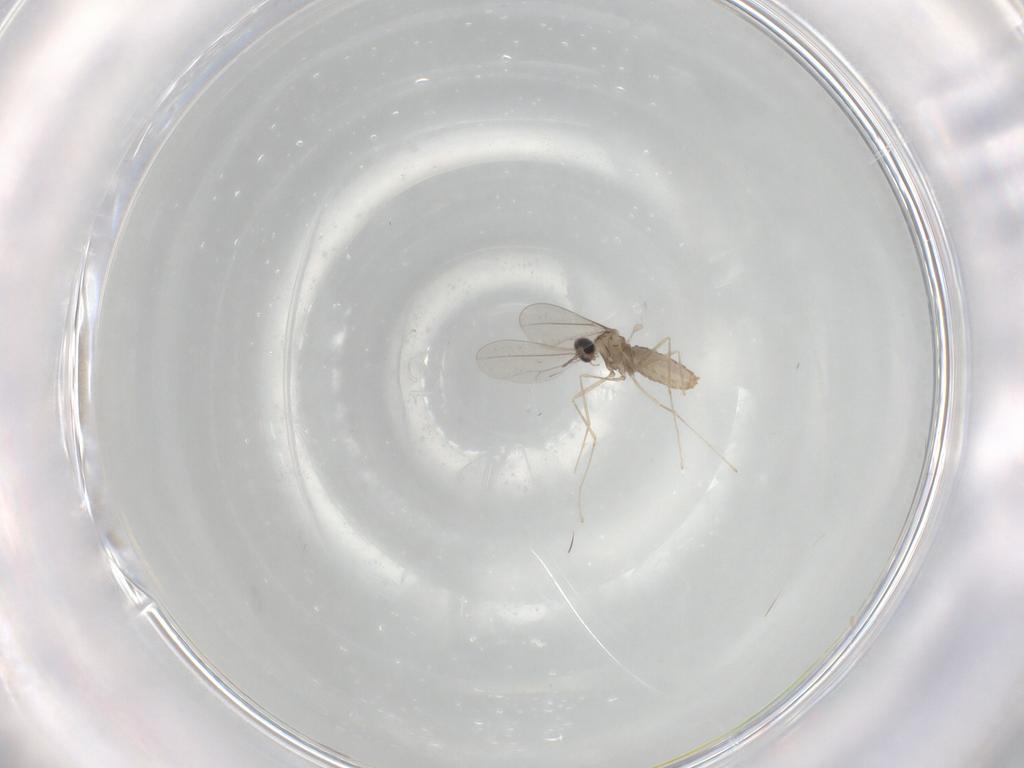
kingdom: Animalia
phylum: Arthropoda
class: Insecta
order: Diptera
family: Cecidomyiidae
